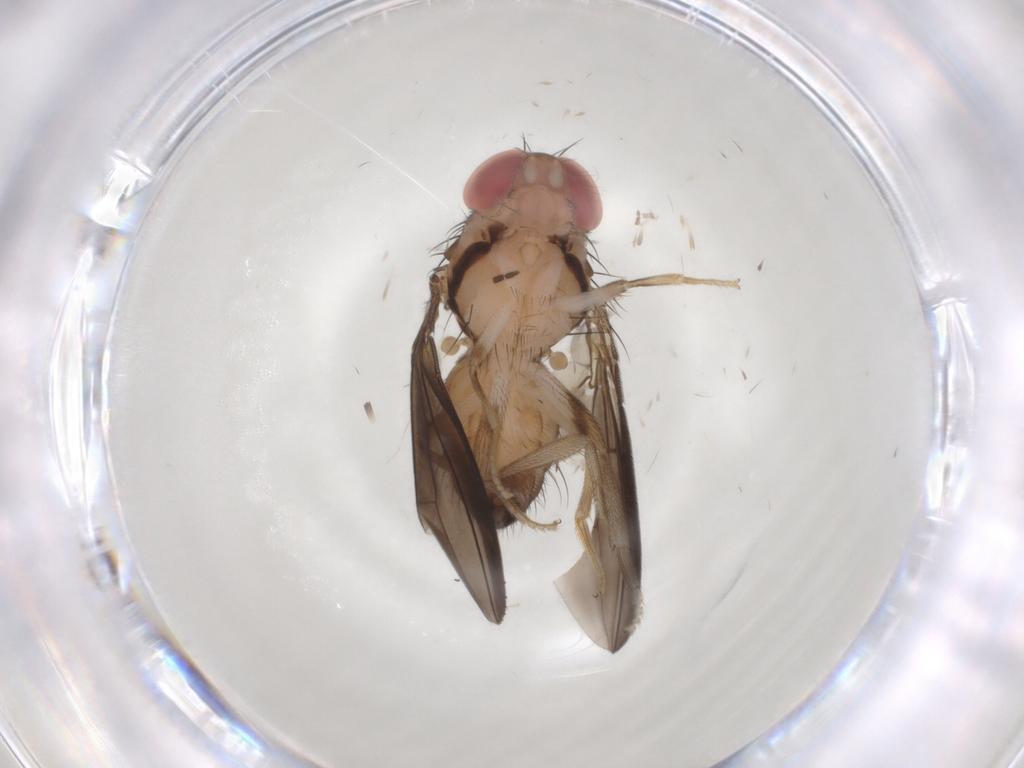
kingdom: Animalia
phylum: Arthropoda
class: Insecta
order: Diptera
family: Drosophilidae
